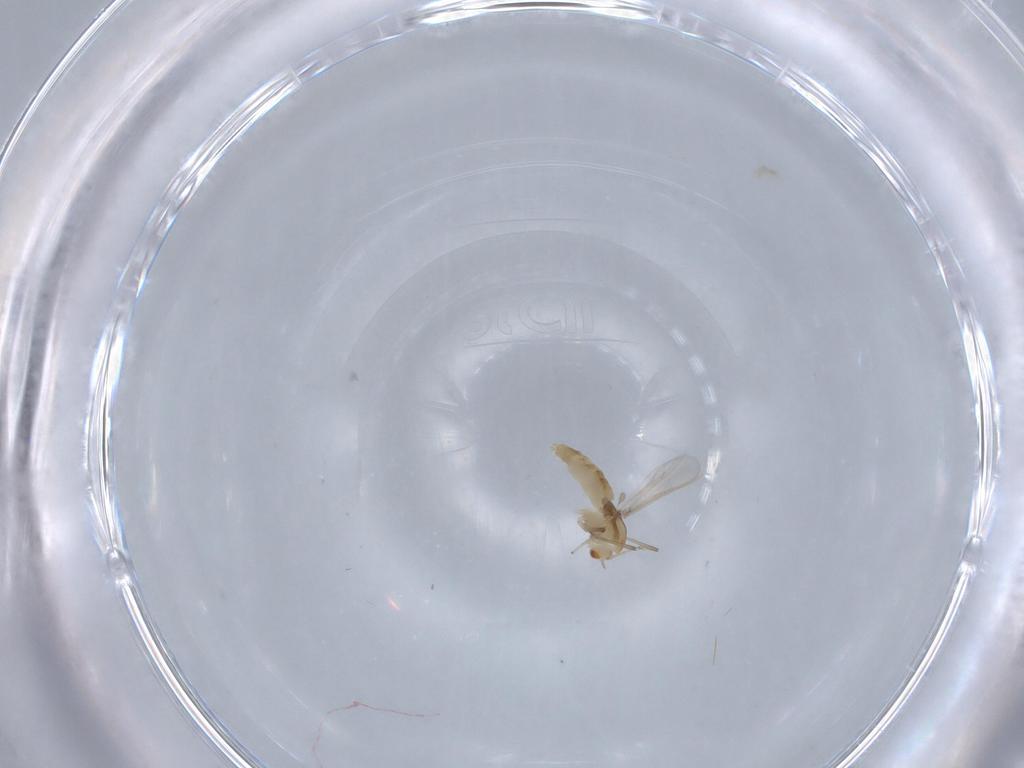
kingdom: Animalia
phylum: Arthropoda
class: Insecta
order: Diptera
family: Chironomidae
